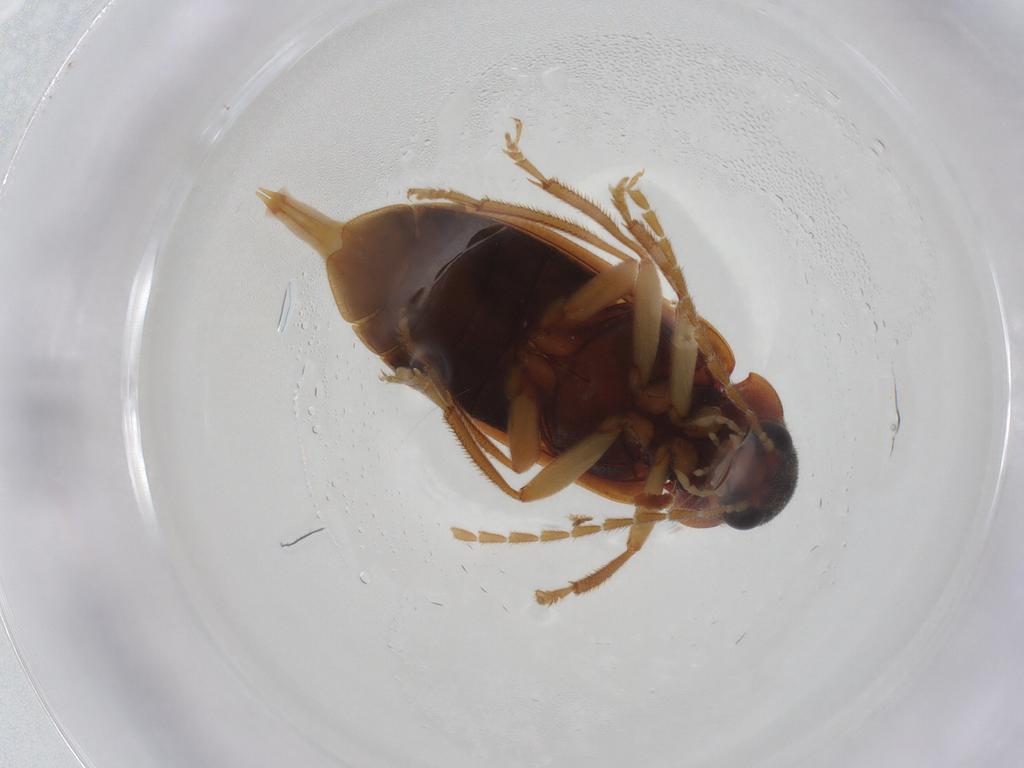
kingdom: Animalia
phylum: Arthropoda
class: Insecta
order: Coleoptera
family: Ptilodactylidae
